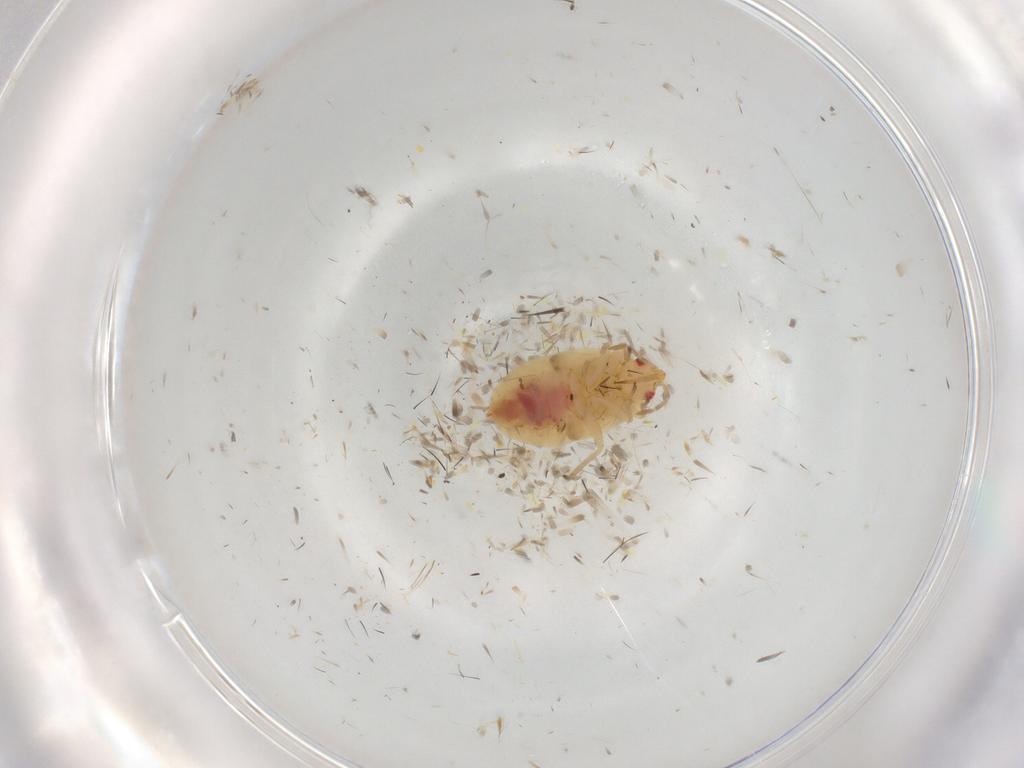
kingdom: Animalia
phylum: Arthropoda
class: Insecta
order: Hemiptera
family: Anthocoridae
